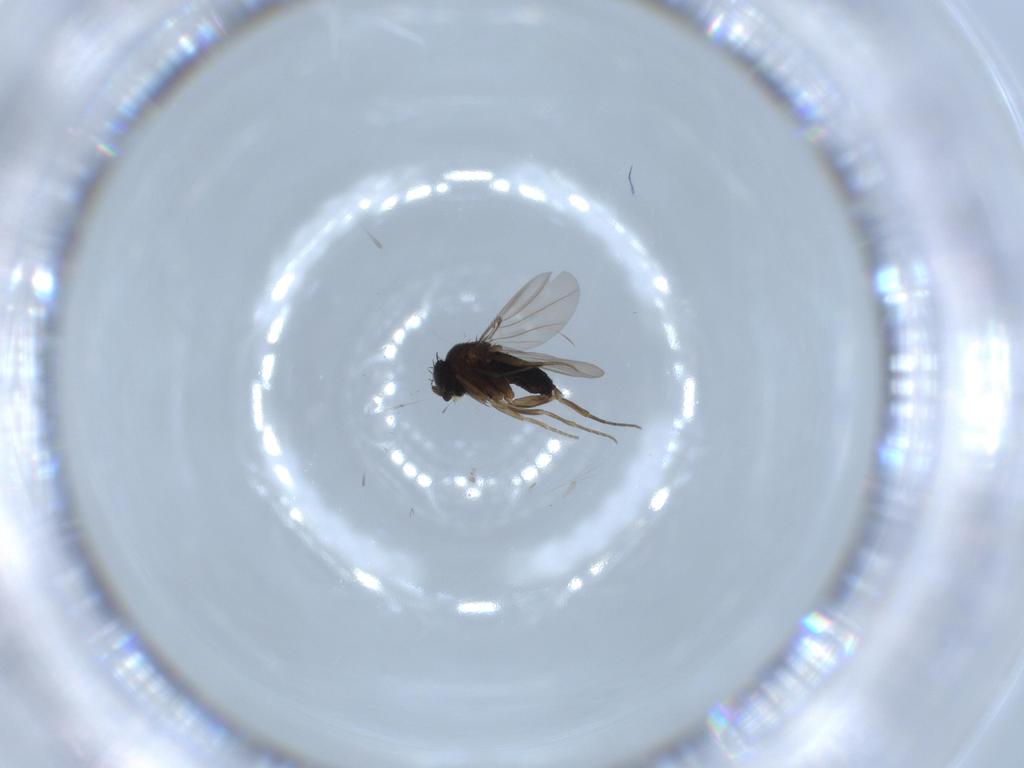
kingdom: Animalia
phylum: Arthropoda
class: Insecta
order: Diptera
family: Phoridae
